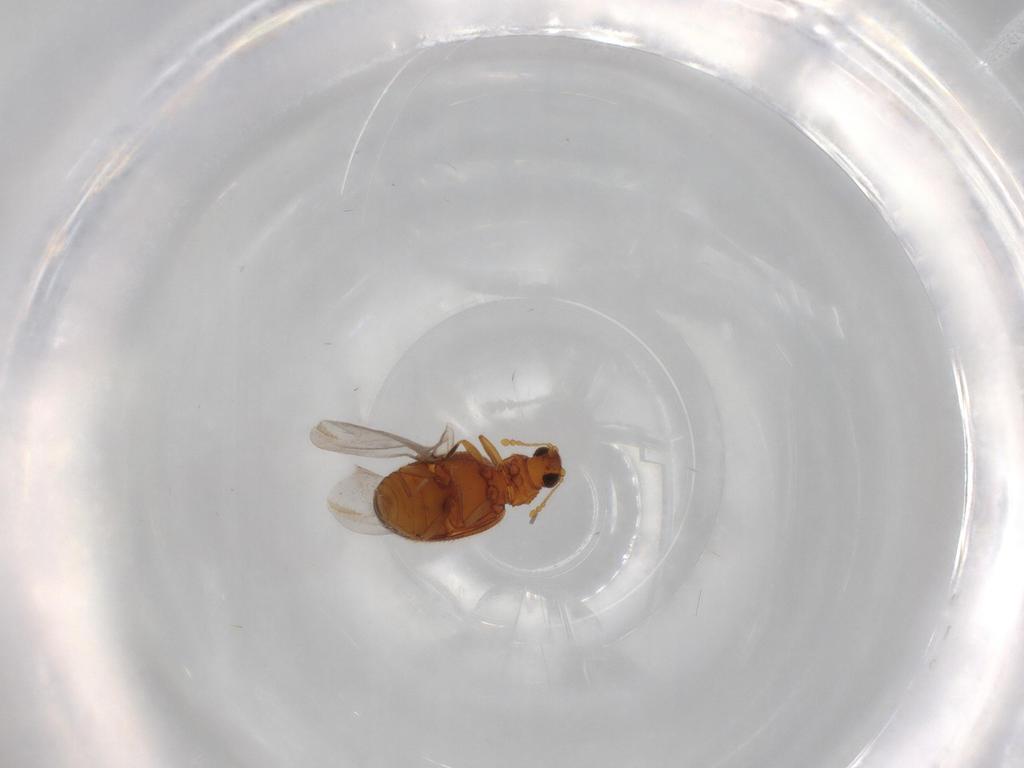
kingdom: Animalia
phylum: Arthropoda
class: Insecta
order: Coleoptera
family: Latridiidae
